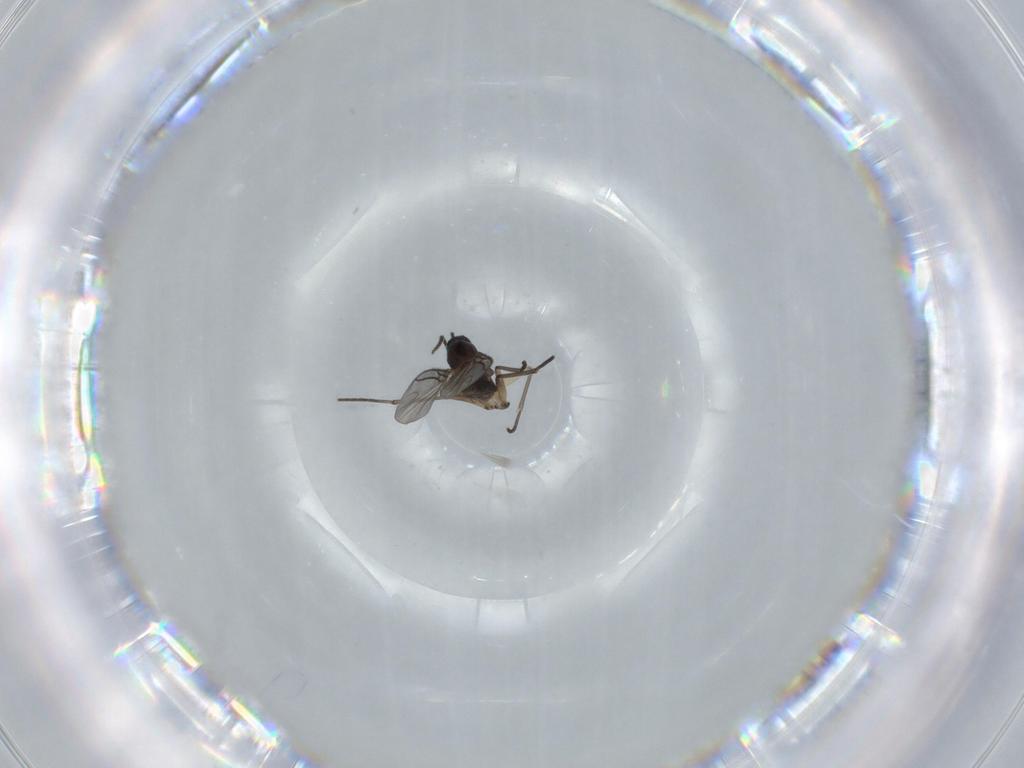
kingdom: Animalia
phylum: Arthropoda
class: Insecta
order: Diptera
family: Sciaridae
